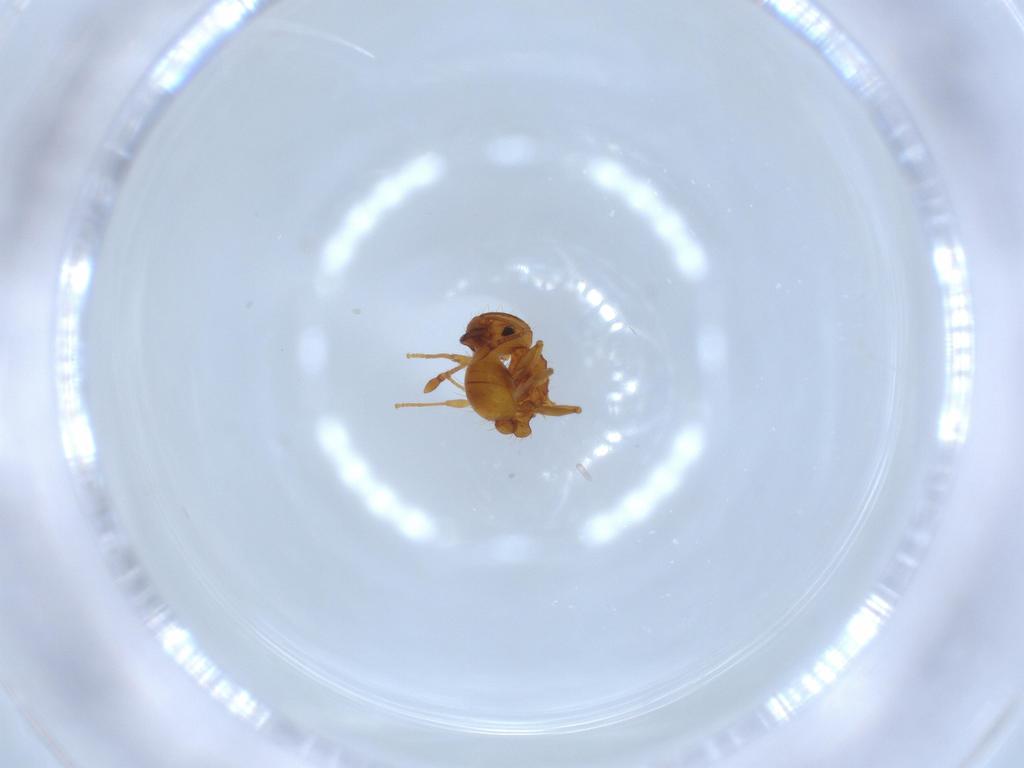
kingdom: Animalia
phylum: Arthropoda
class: Insecta
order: Hymenoptera
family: Formicidae
